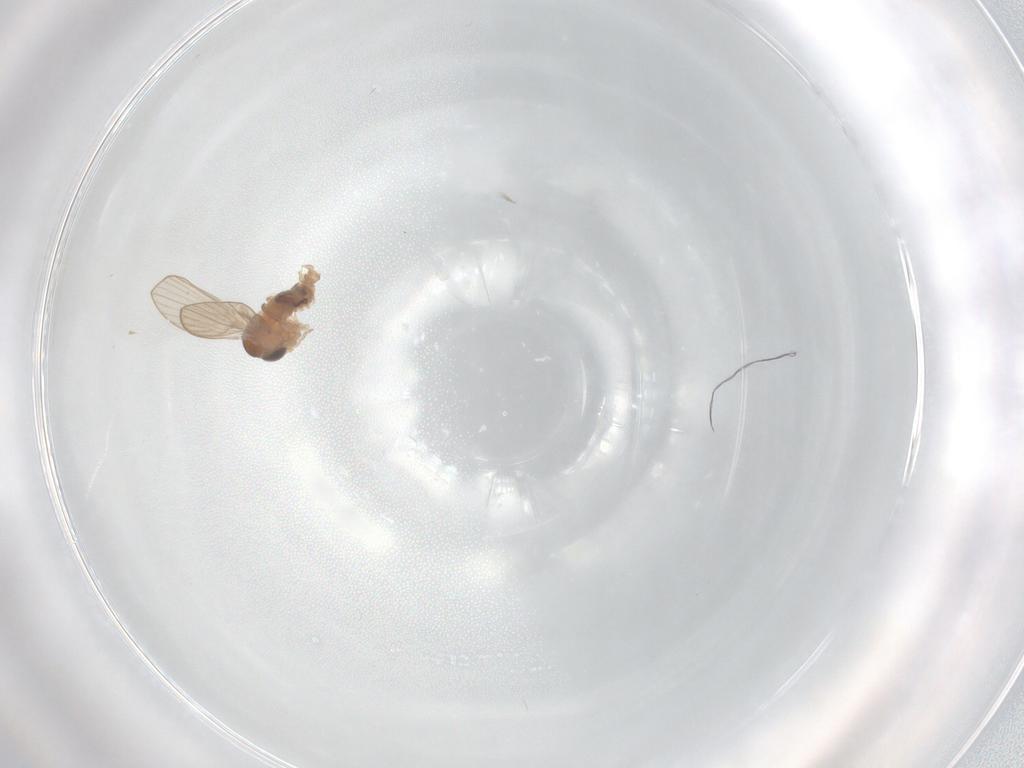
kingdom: Animalia
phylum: Arthropoda
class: Insecta
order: Diptera
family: Psychodidae
